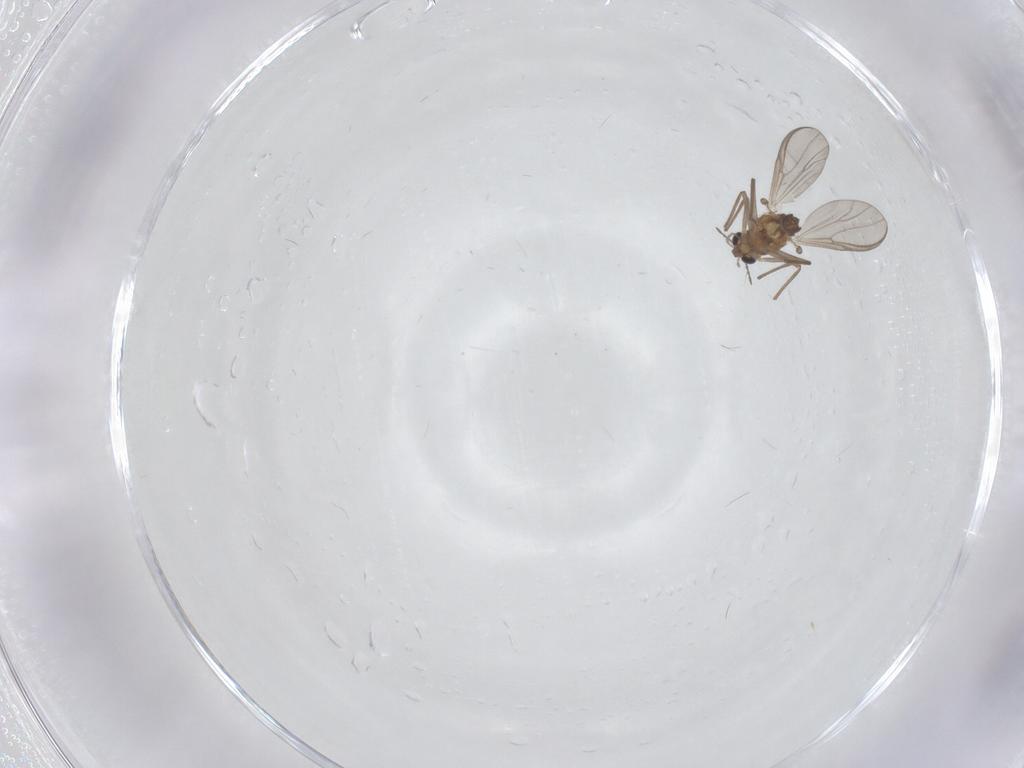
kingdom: Animalia
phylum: Arthropoda
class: Insecta
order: Diptera
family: Chironomidae
